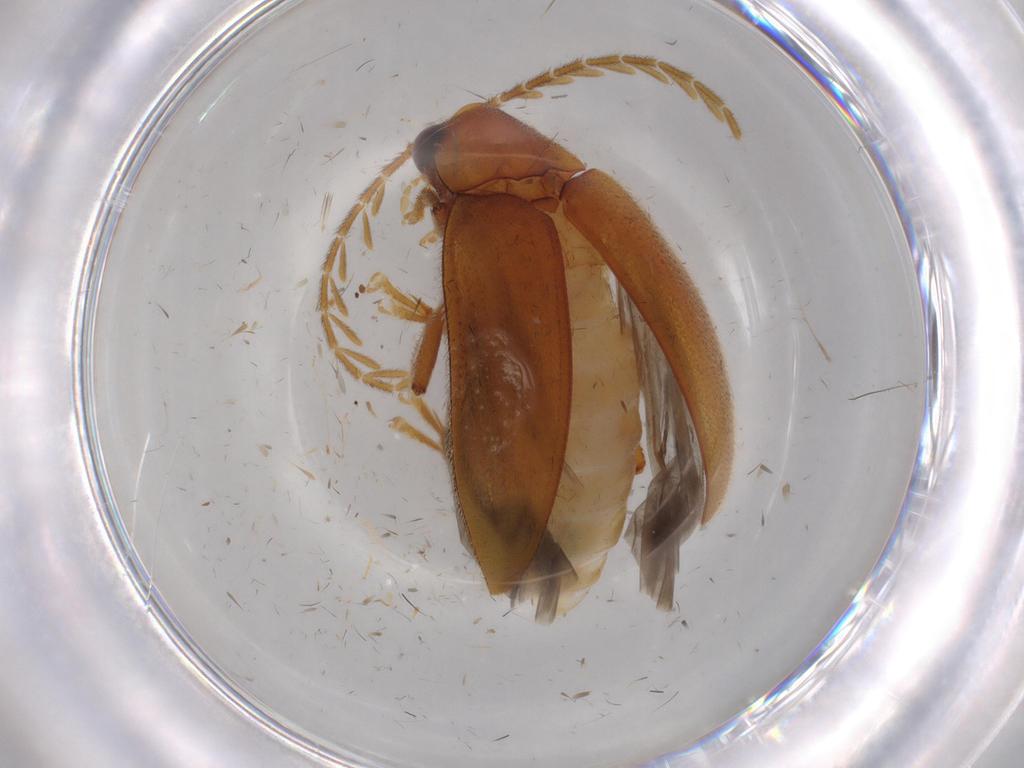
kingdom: Animalia
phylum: Arthropoda
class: Insecta
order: Coleoptera
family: Ptilodactylidae
